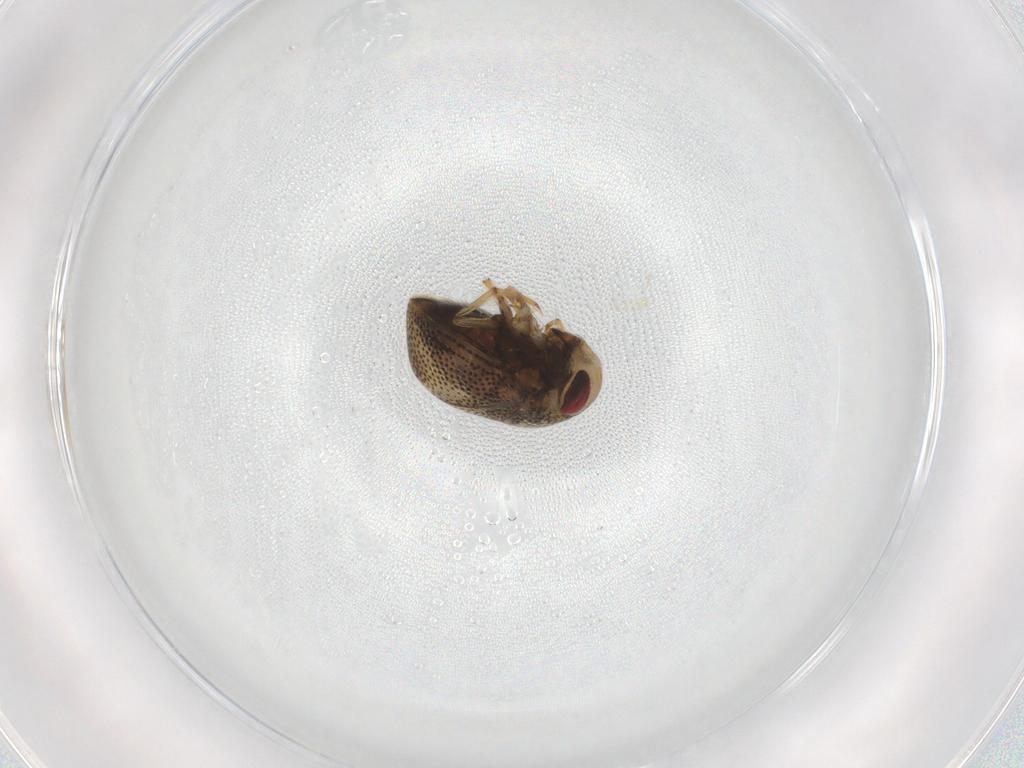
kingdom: Animalia
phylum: Arthropoda
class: Insecta
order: Hemiptera
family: Pleidae
